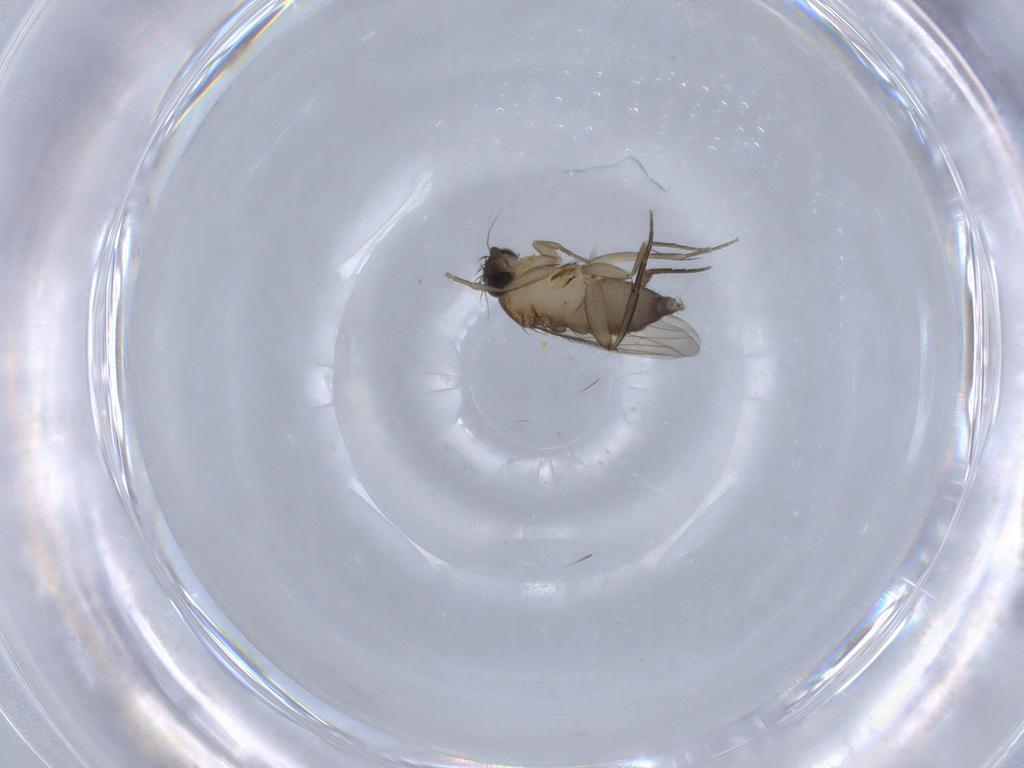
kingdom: Animalia
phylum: Arthropoda
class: Insecta
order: Diptera
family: Phoridae
